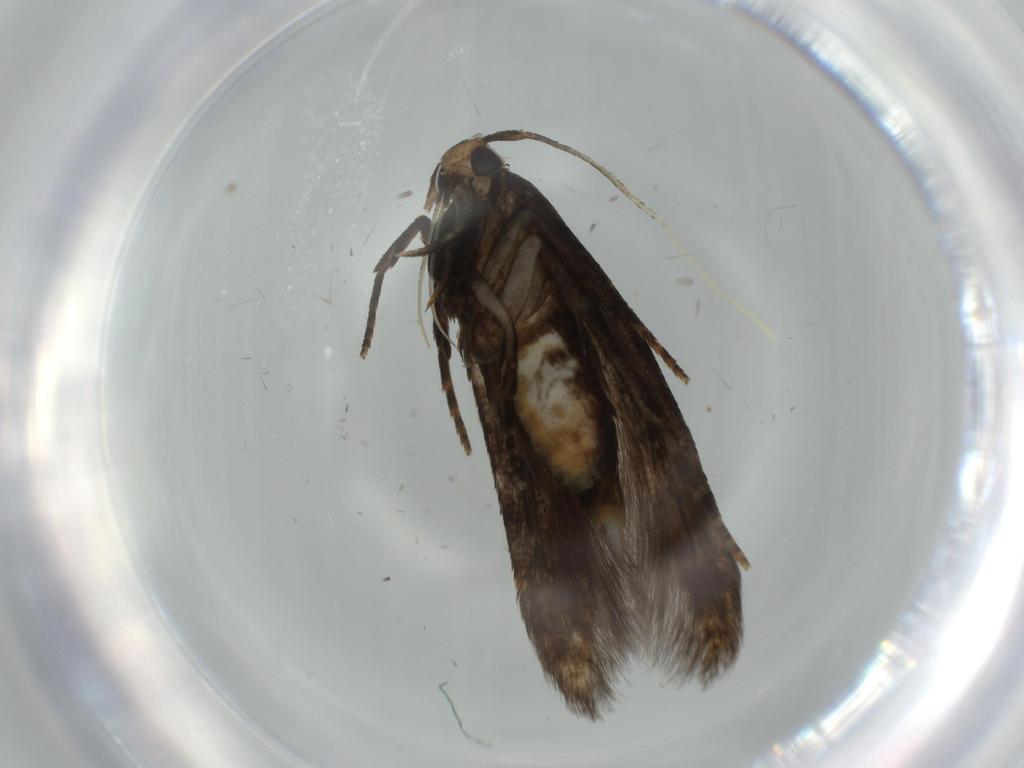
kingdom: Animalia
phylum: Arthropoda
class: Insecta
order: Lepidoptera
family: Autostichidae
